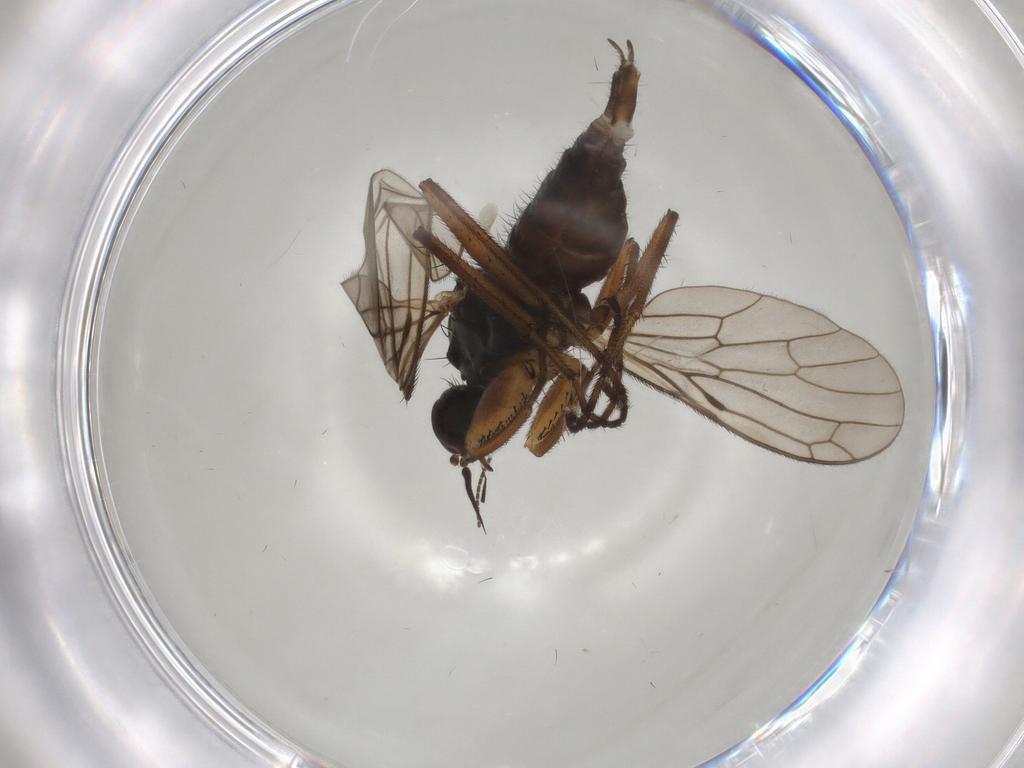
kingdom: Animalia
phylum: Arthropoda
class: Insecta
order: Diptera
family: Empididae
